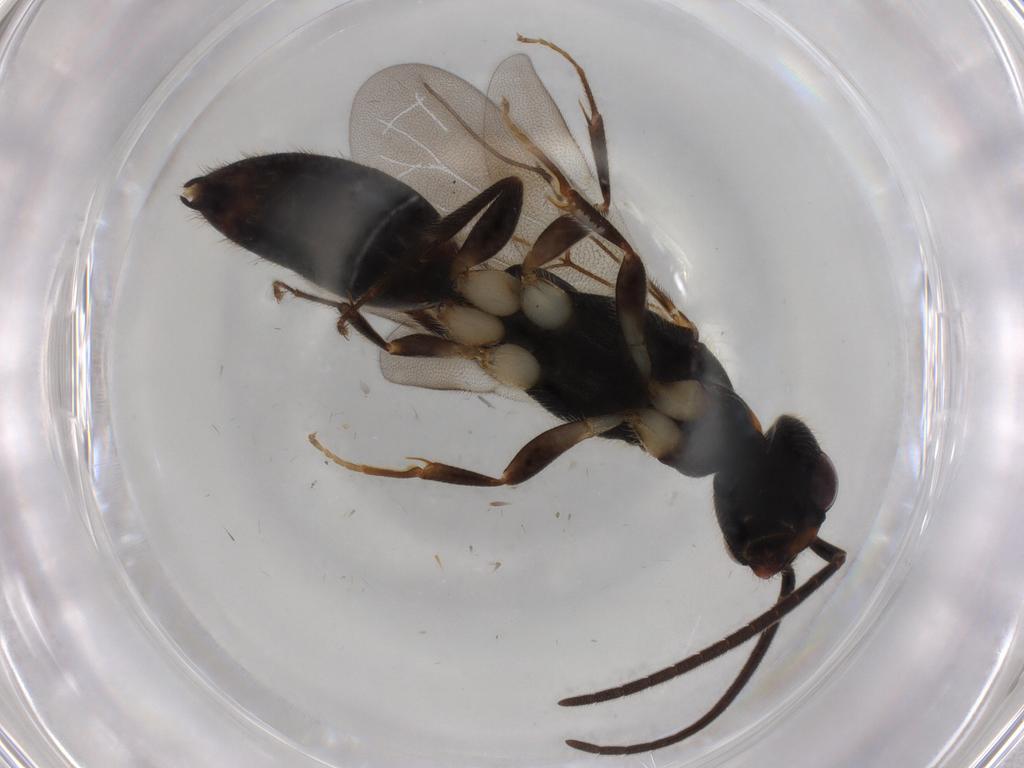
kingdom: Animalia
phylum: Arthropoda
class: Insecta
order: Hymenoptera
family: Bethylidae
